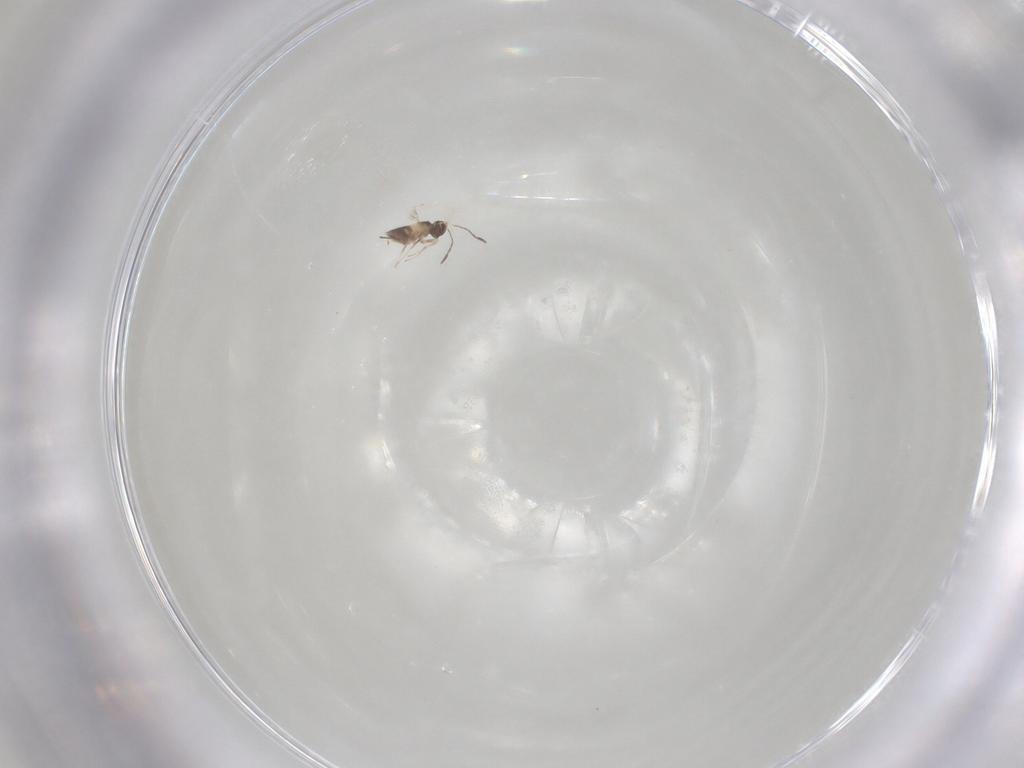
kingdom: Animalia
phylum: Arthropoda
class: Insecta
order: Hymenoptera
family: Mymaridae
